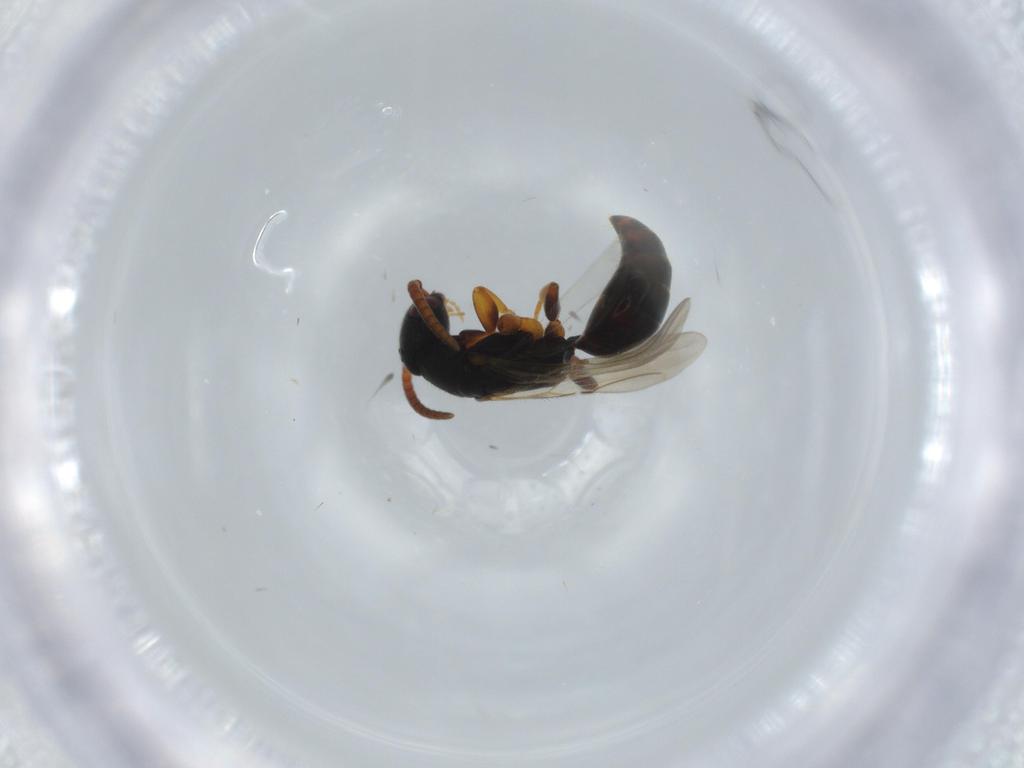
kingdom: Animalia
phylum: Arthropoda
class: Insecta
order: Hymenoptera
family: Bethylidae
